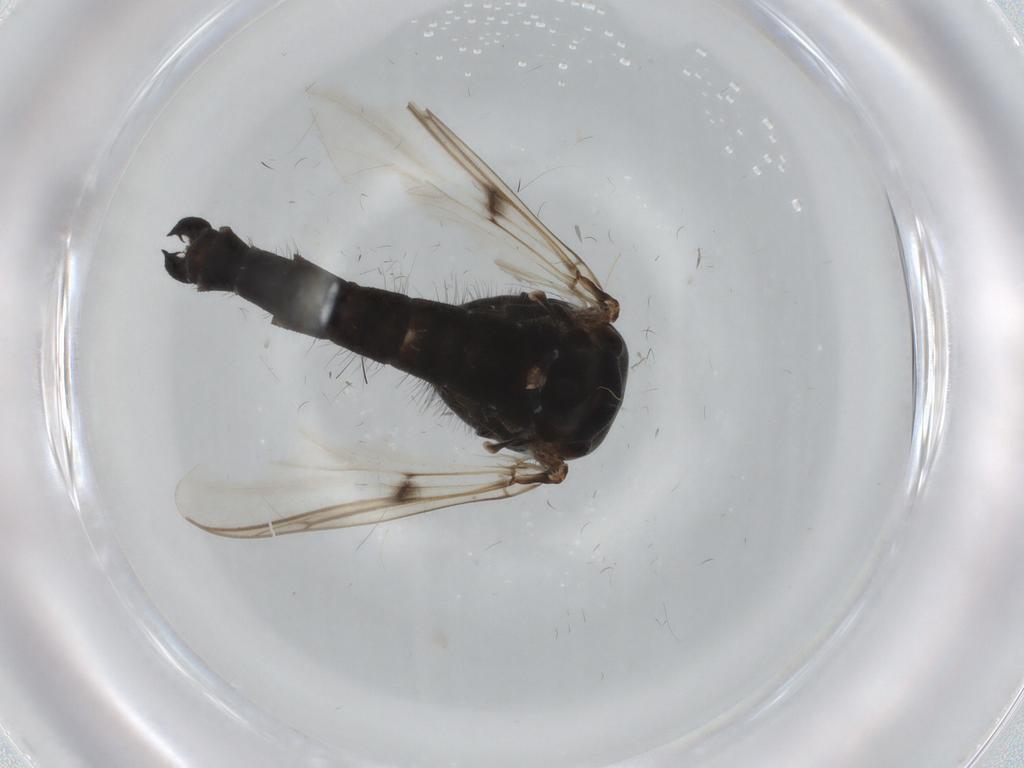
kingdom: Animalia
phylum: Arthropoda
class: Insecta
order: Diptera
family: Chironomidae
